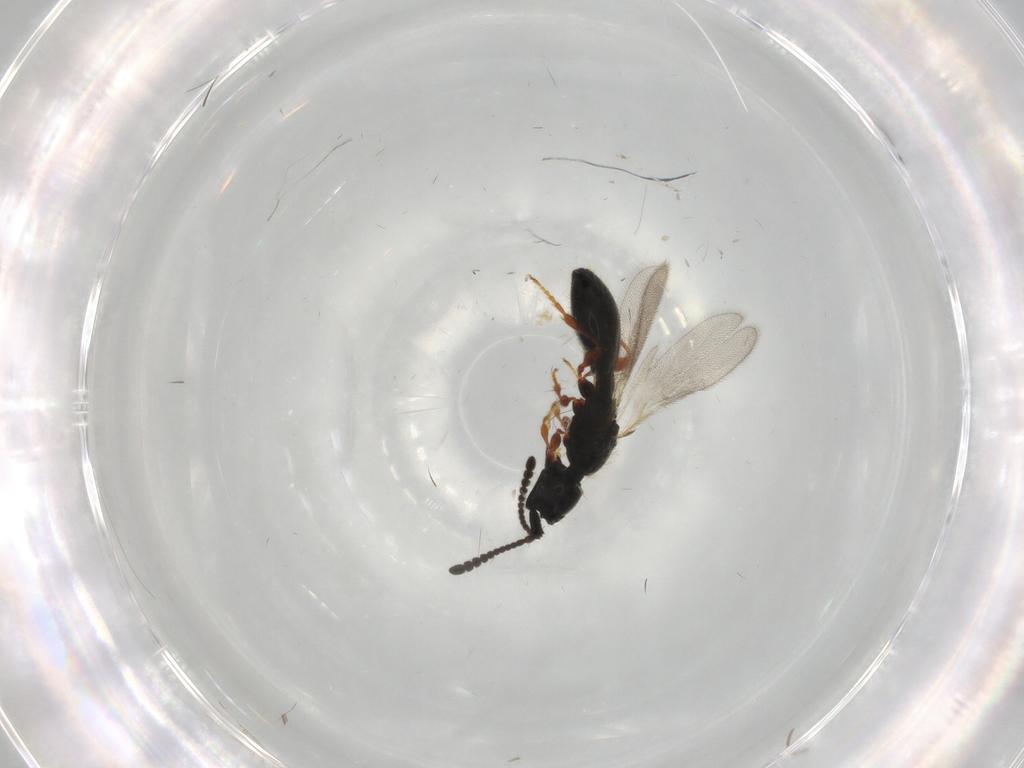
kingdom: Animalia
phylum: Arthropoda
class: Insecta
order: Hymenoptera
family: Diapriidae
